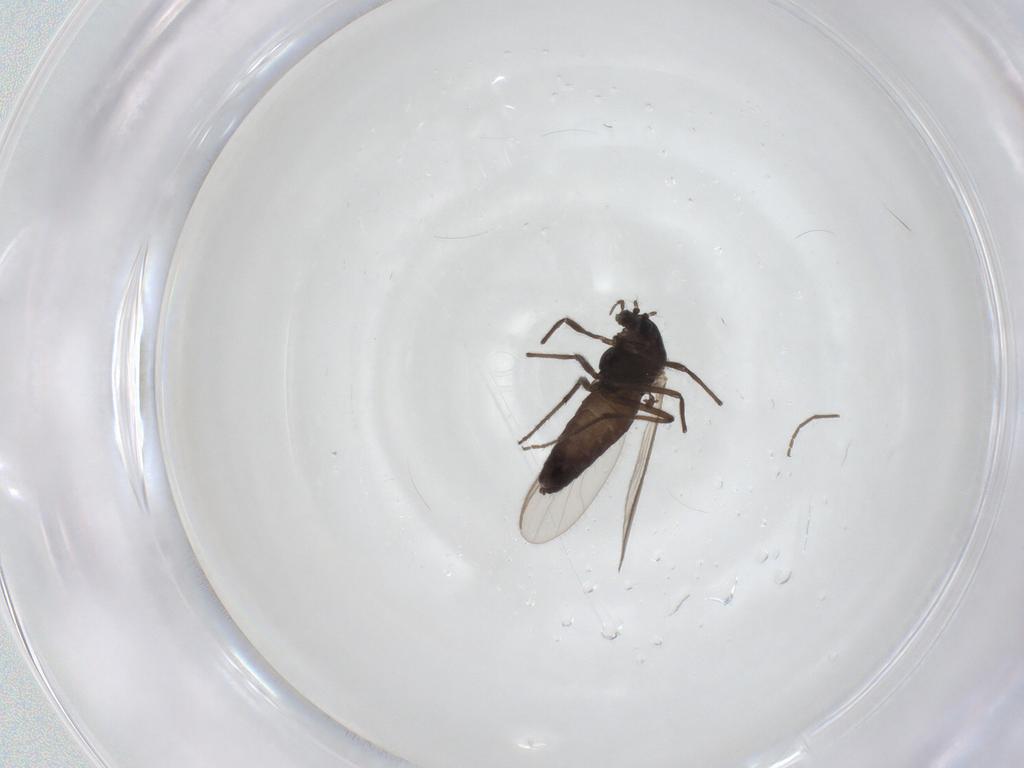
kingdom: Animalia
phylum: Arthropoda
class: Insecta
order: Diptera
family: Chironomidae
